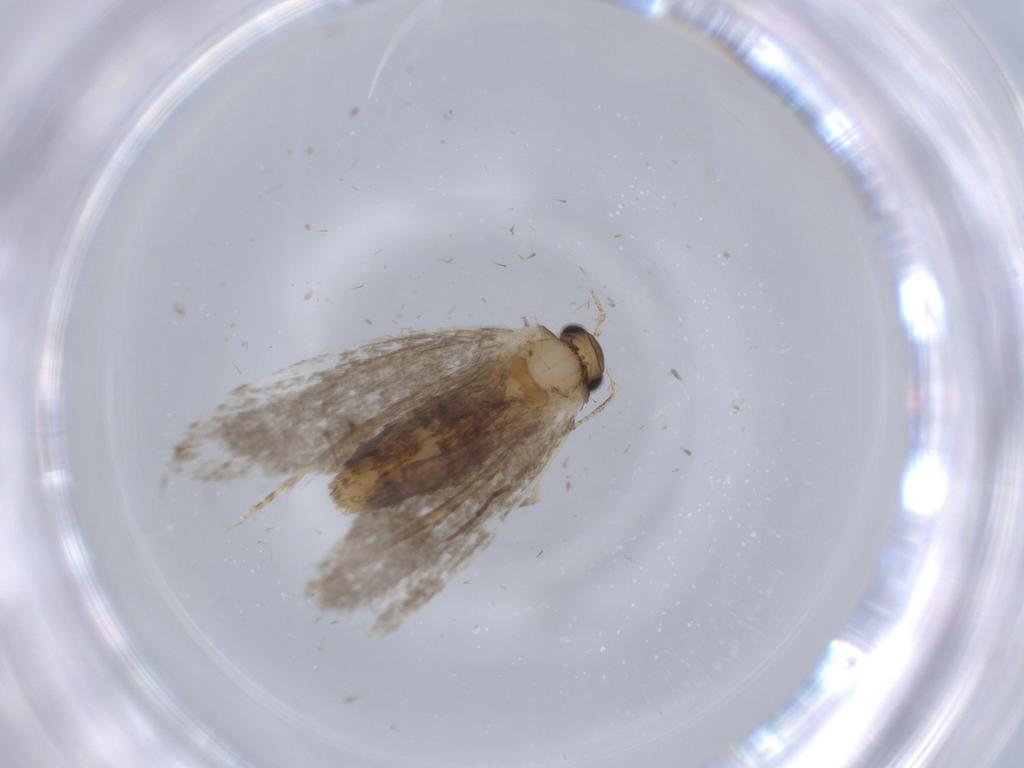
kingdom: Animalia
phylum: Arthropoda
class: Insecta
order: Lepidoptera
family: Tineidae
